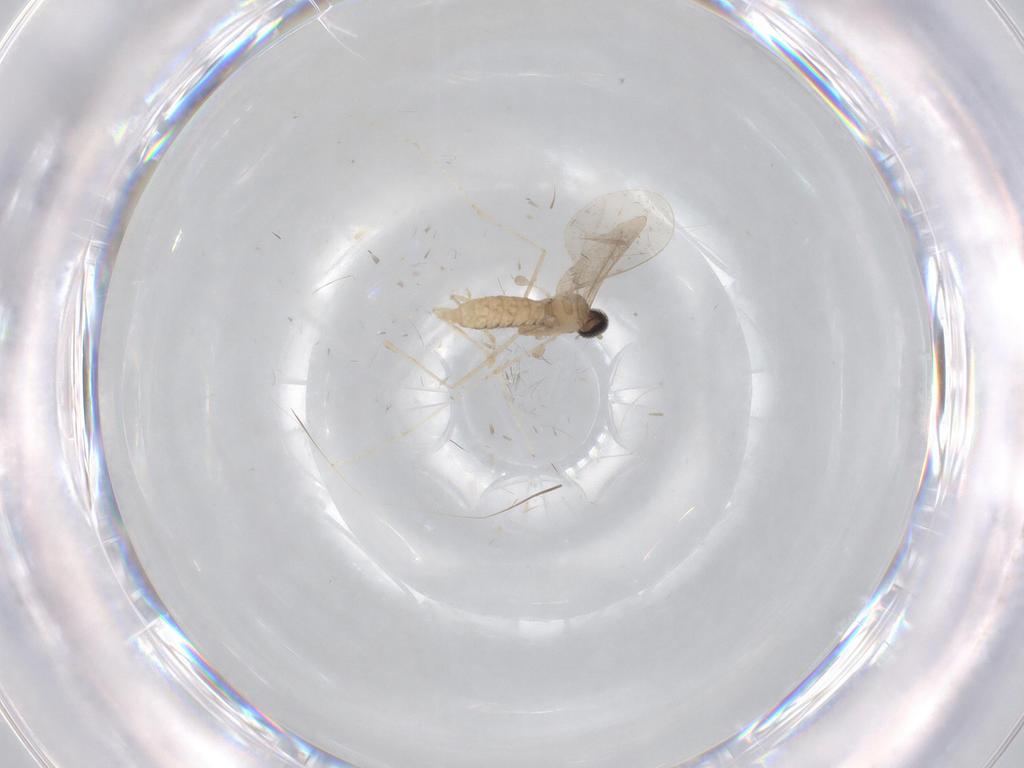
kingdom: Animalia
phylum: Arthropoda
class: Insecta
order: Diptera
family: Cecidomyiidae
